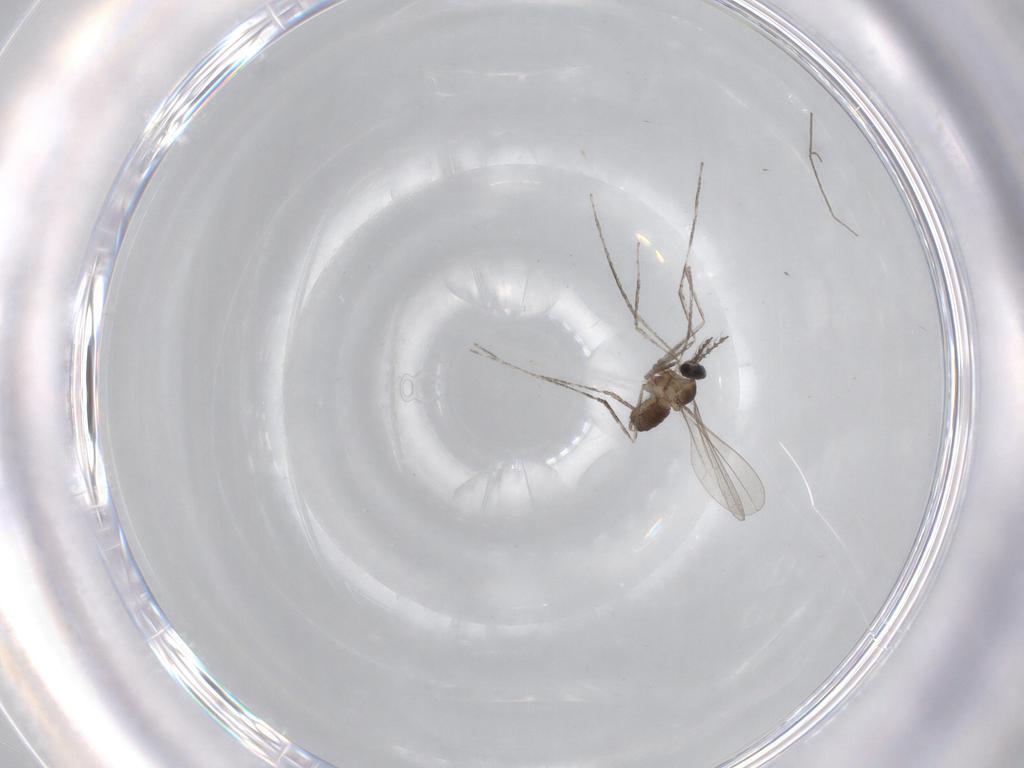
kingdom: Animalia
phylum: Arthropoda
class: Insecta
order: Diptera
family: Cecidomyiidae
